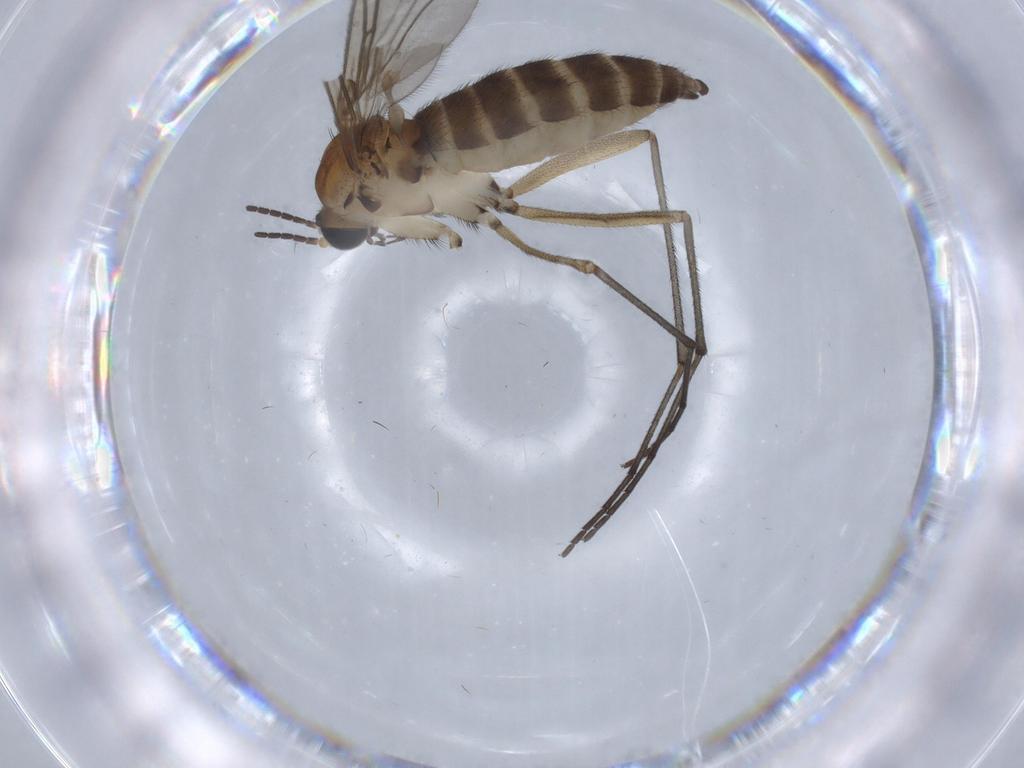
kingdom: Animalia
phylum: Arthropoda
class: Insecta
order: Diptera
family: Sciaridae
